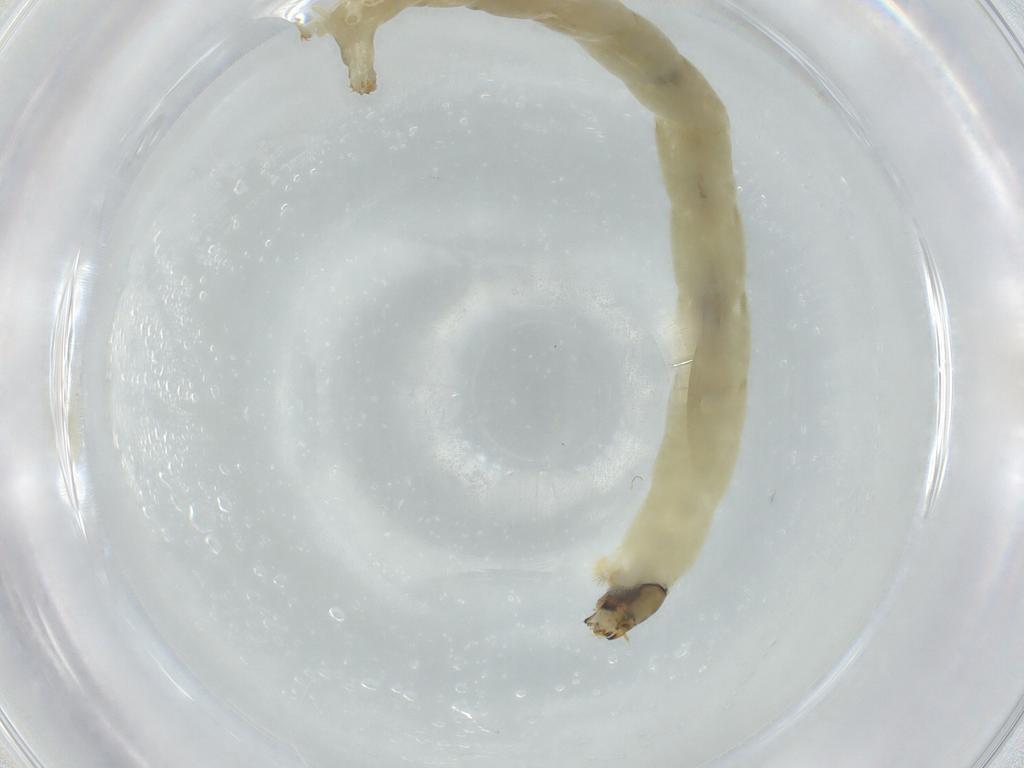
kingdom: Animalia
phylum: Arthropoda
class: Insecta
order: Diptera
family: Chironomidae
